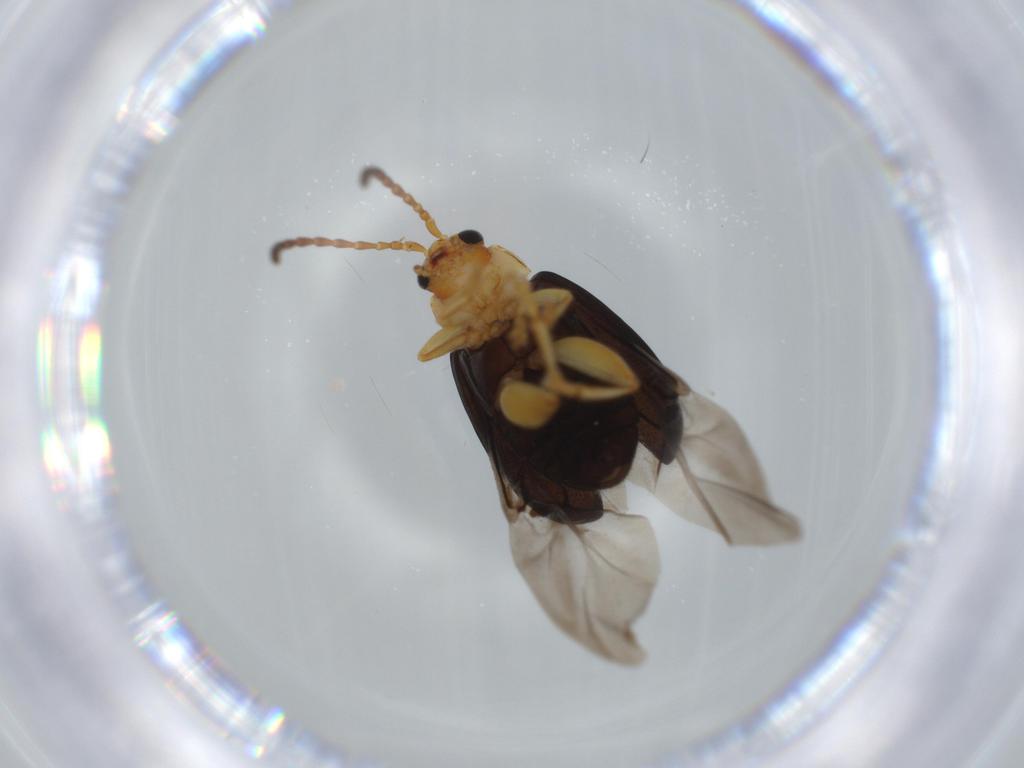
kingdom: Animalia
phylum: Arthropoda
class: Insecta
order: Coleoptera
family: Chrysomelidae
